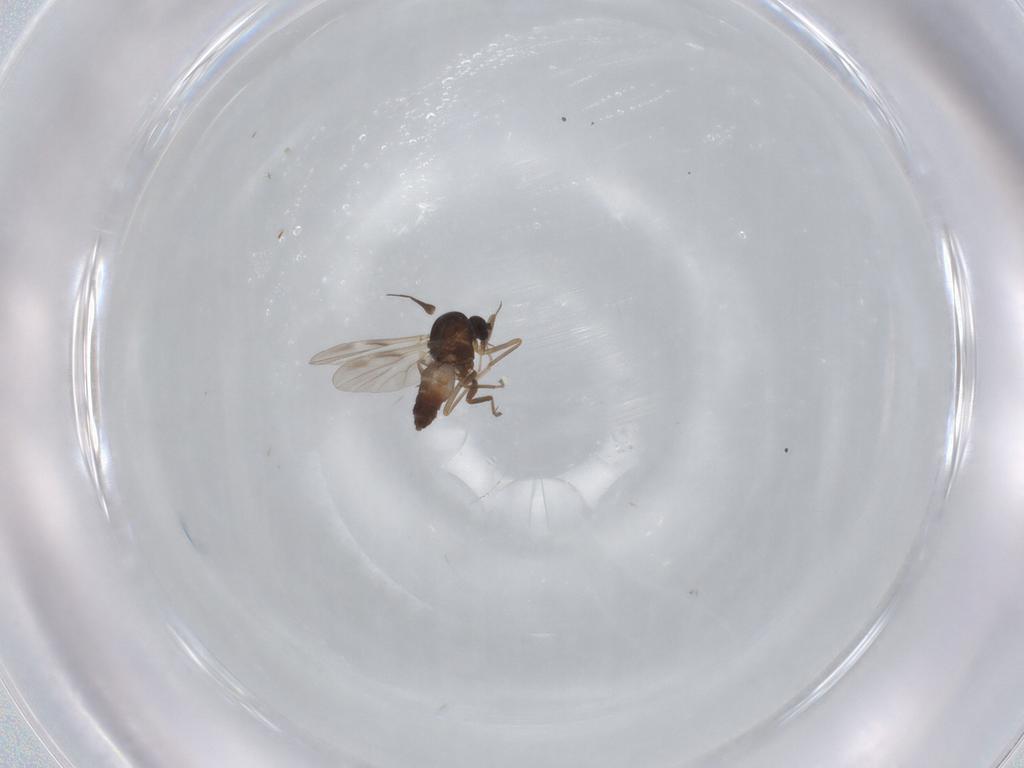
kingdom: Animalia
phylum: Arthropoda
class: Insecta
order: Diptera
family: Ceratopogonidae
